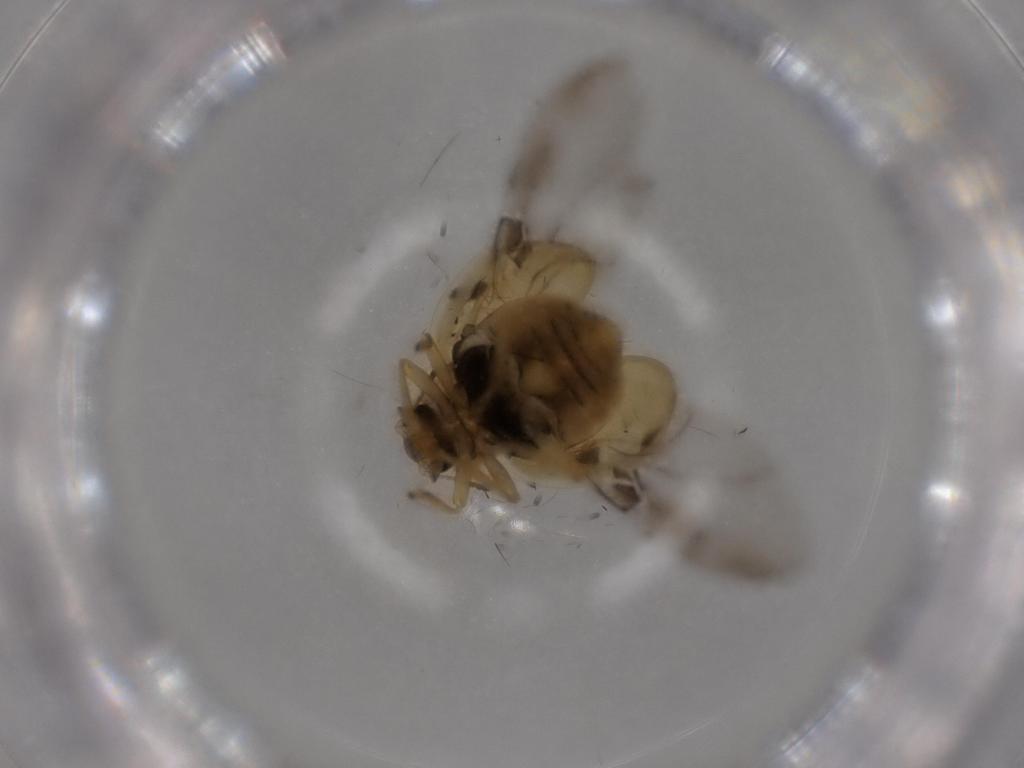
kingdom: Animalia
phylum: Arthropoda
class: Insecta
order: Coleoptera
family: Coccinellidae
